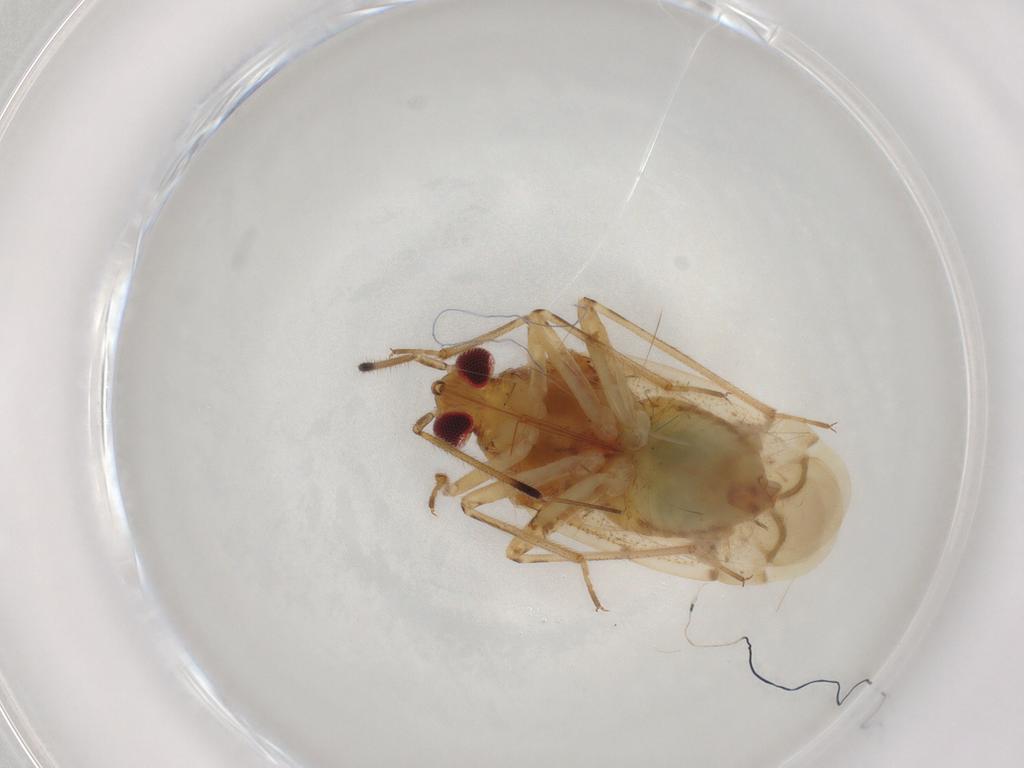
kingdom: Animalia
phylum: Arthropoda
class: Insecta
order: Hemiptera
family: Miridae
